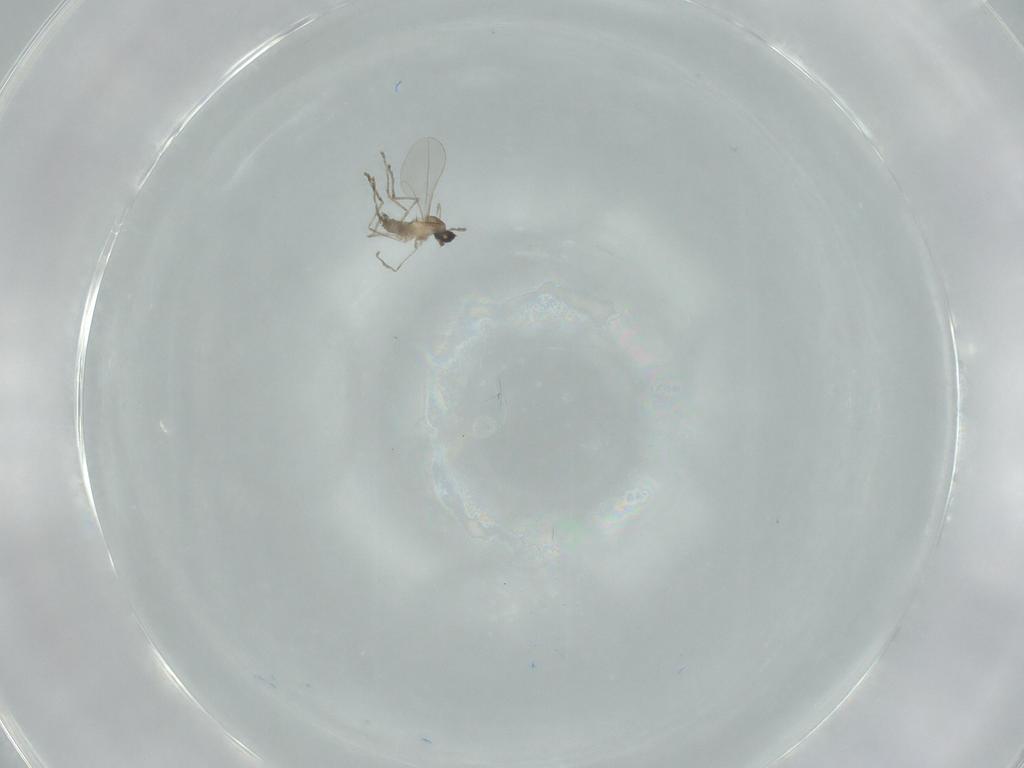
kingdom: Animalia
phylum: Arthropoda
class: Insecta
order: Diptera
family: Cecidomyiidae
